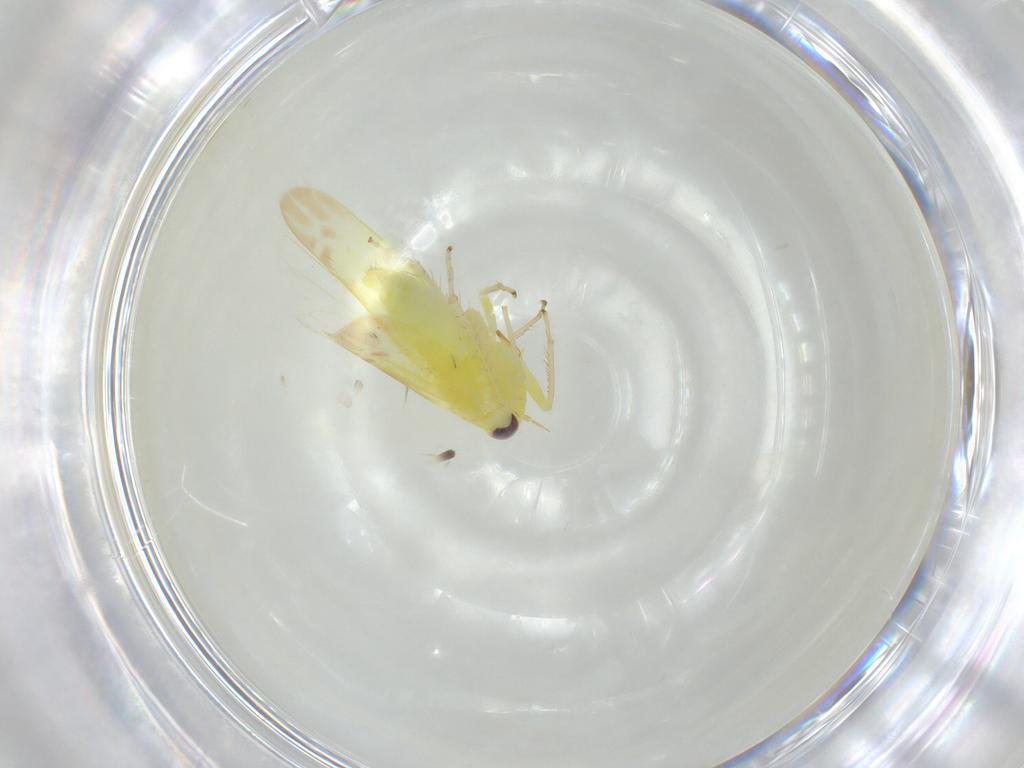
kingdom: Animalia
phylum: Arthropoda
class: Insecta
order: Hemiptera
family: Cicadellidae
